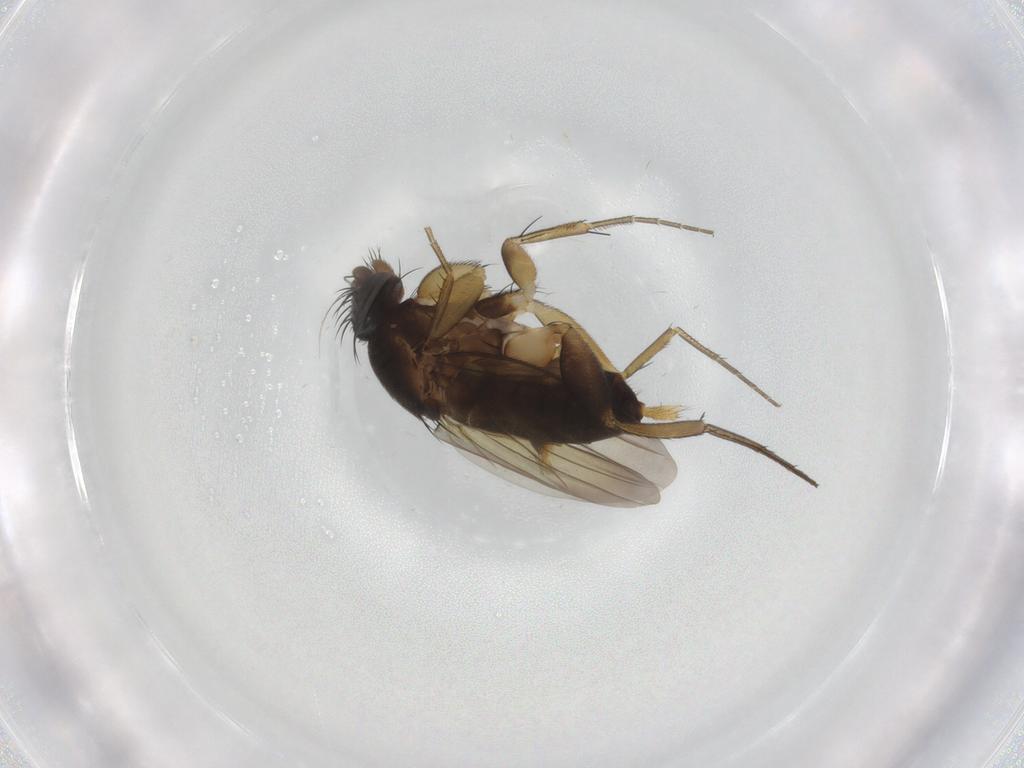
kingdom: Animalia
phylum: Arthropoda
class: Insecta
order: Diptera
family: Phoridae
